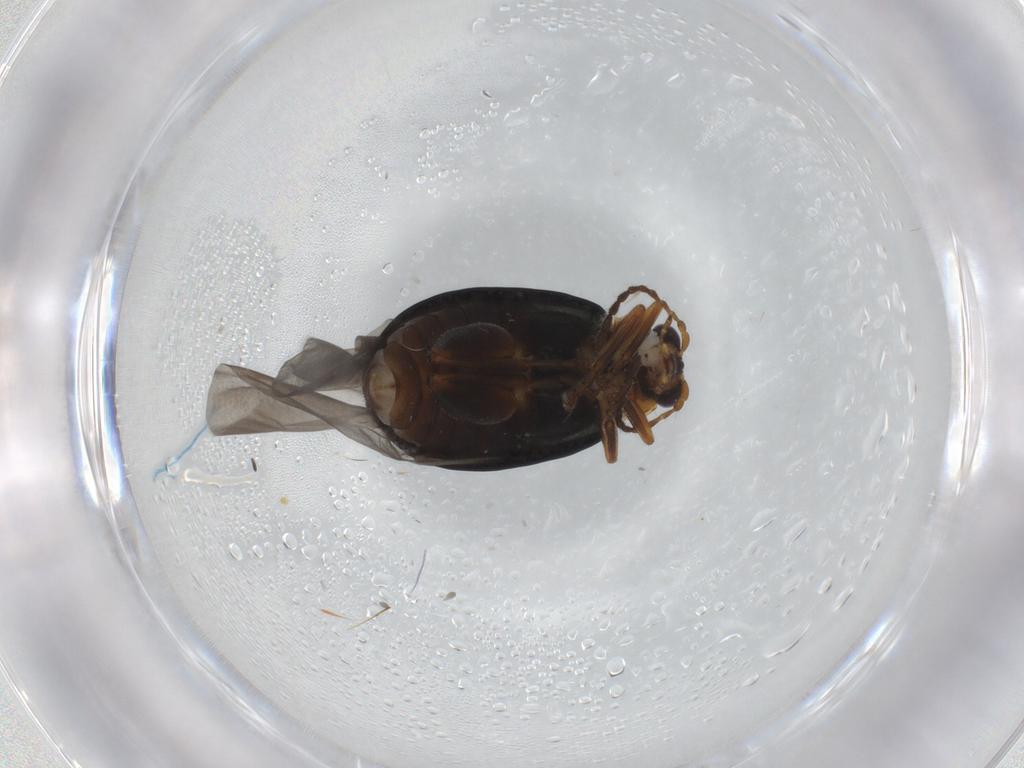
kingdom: Animalia
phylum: Arthropoda
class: Insecta
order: Coleoptera
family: Chrysomelidae
